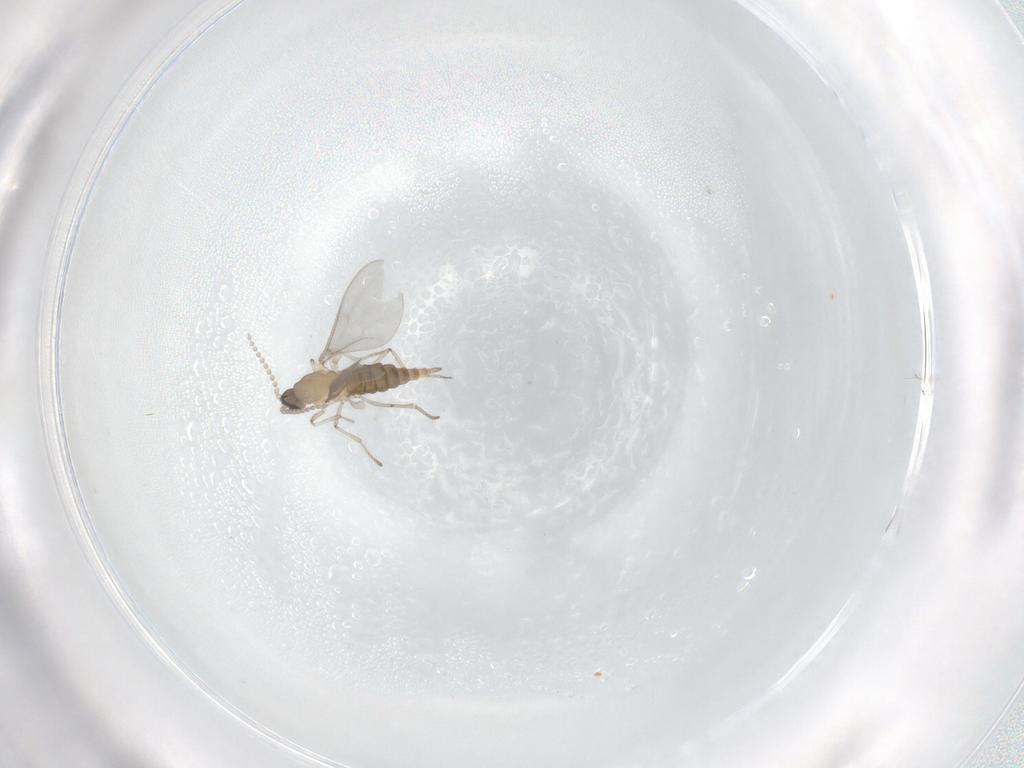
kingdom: Animalia
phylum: Arthropoda
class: Insecta
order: Diptera
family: Cecidomyiidae
